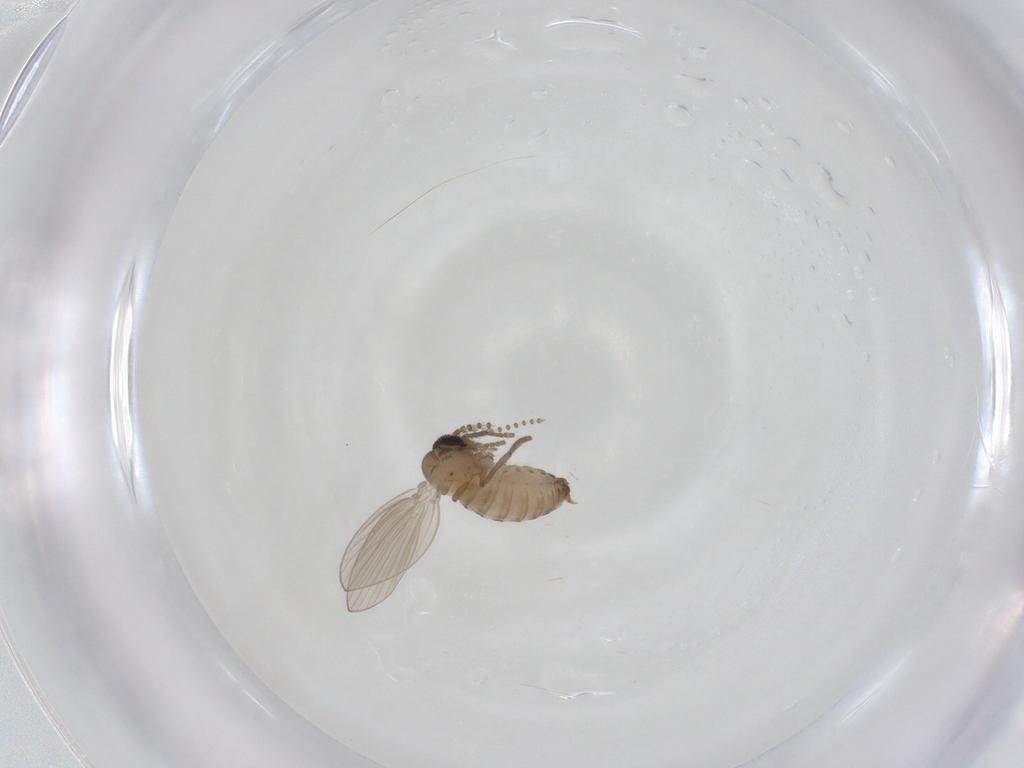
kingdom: Animalia
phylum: Arthropoda
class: Insecta
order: Diptera
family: Psychodidae
